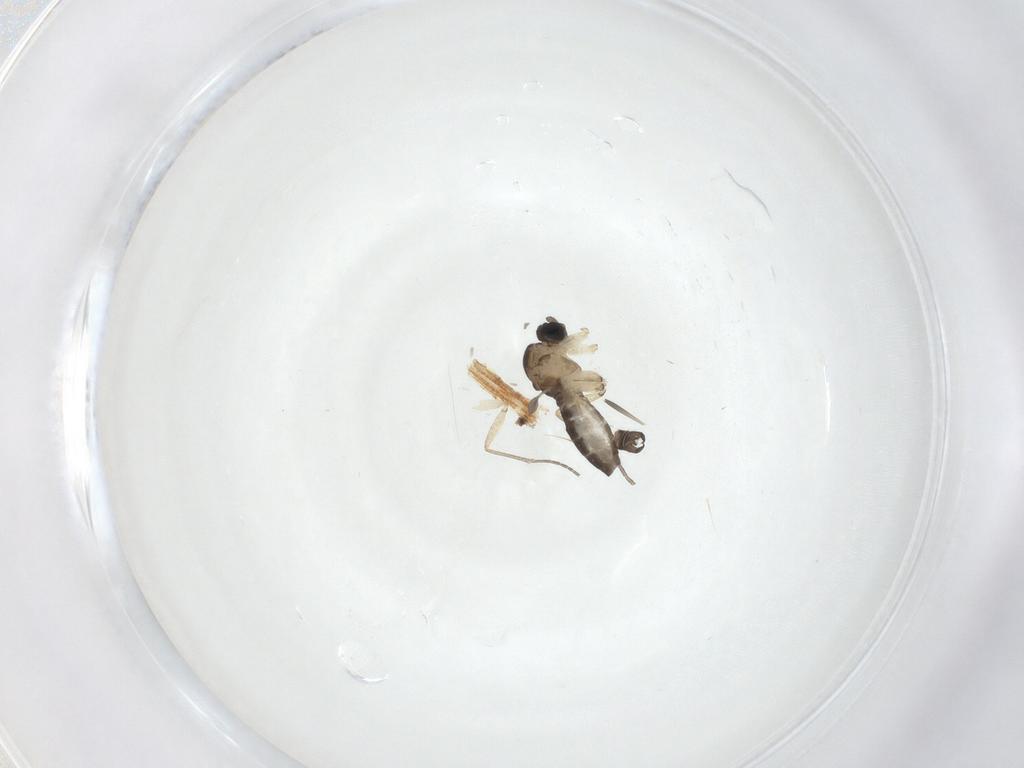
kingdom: Animalia
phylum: Arthropoda
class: Insecta
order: Diptera
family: Sciaridae
